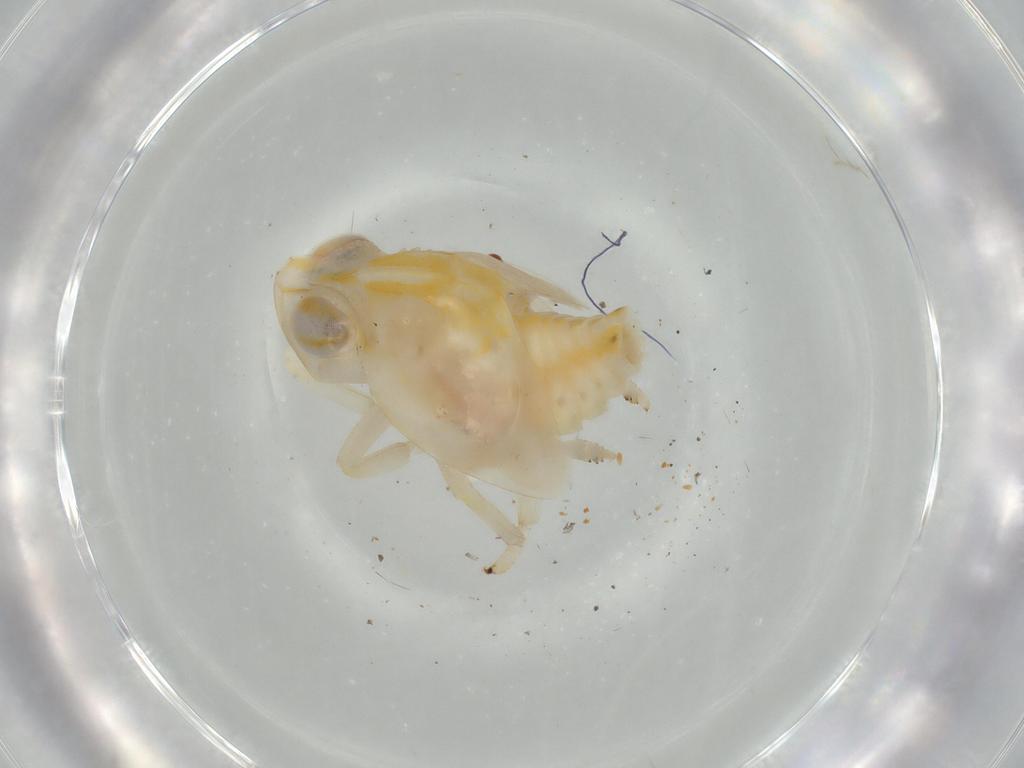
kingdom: Animalia
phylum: Arthropoda
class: Insecta
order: Hemiptera
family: Nogodinidae
